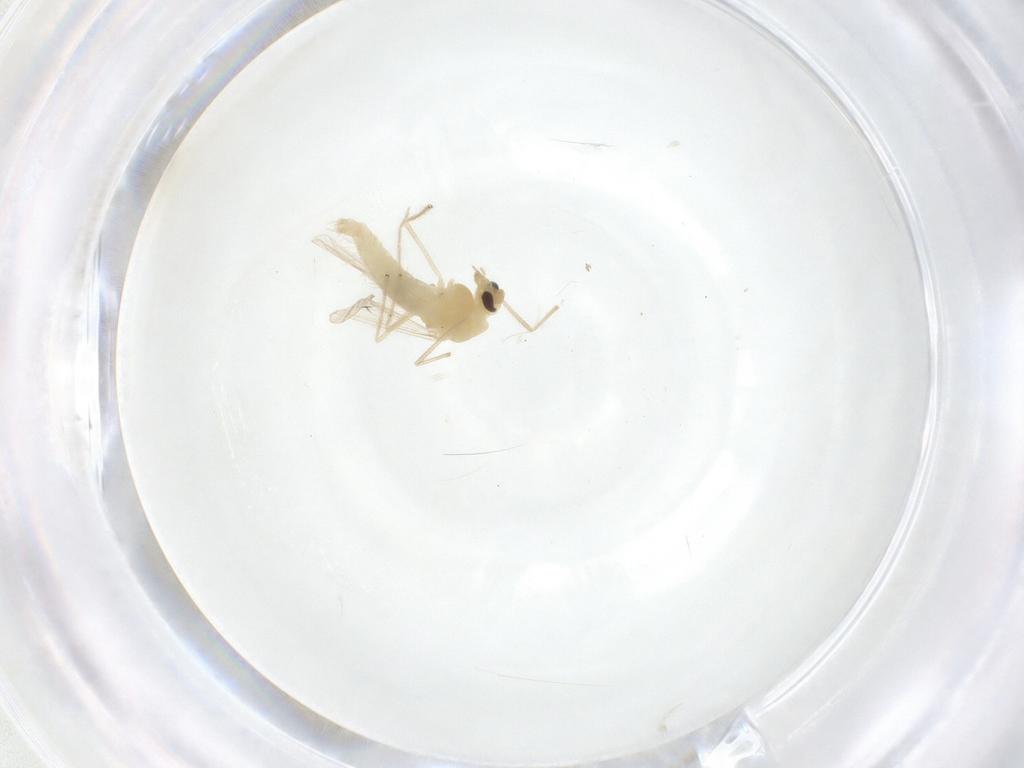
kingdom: Animalia
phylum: Arthropoda
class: Insecta
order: Diptera
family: Chironomidae
